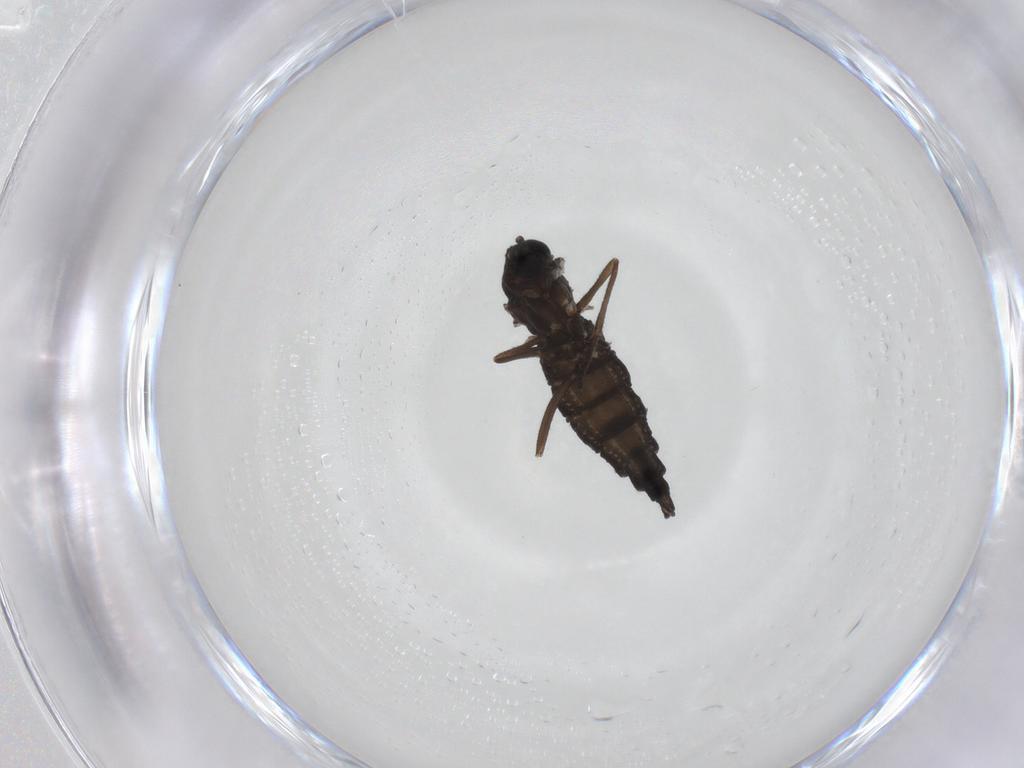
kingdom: Animalia
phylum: Arthropoda
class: Insecta
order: Diptera
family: Sciaridae
